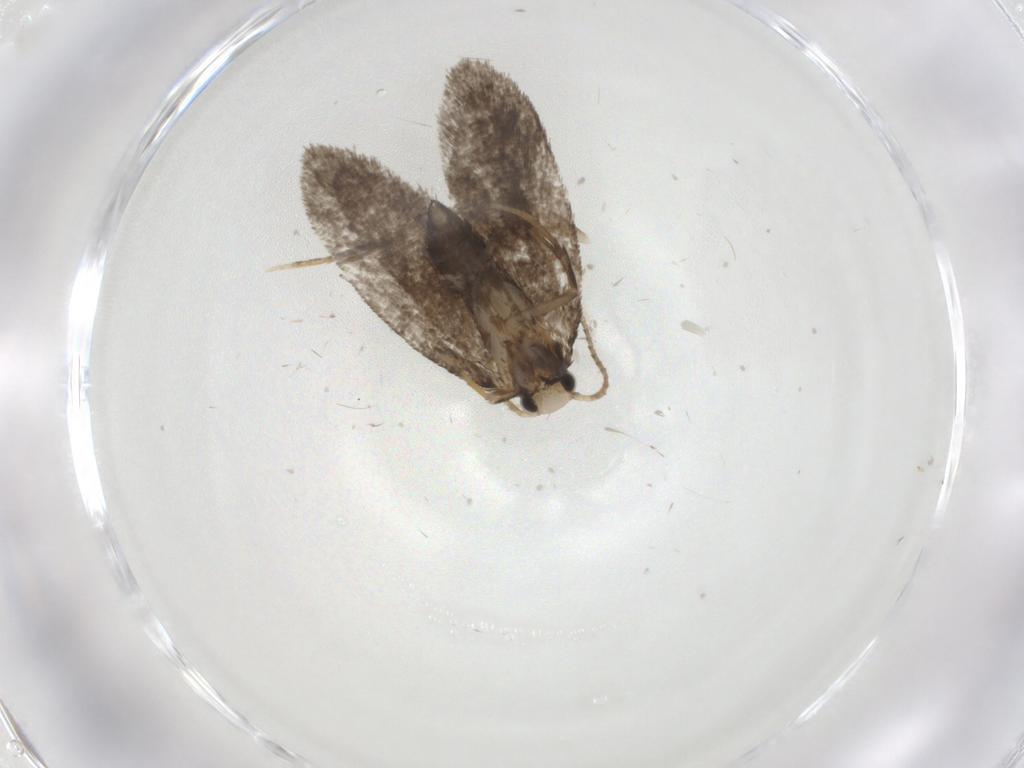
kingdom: Animalia
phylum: Arthropoda
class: Insecta
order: Lepidoptera
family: Psychidae
